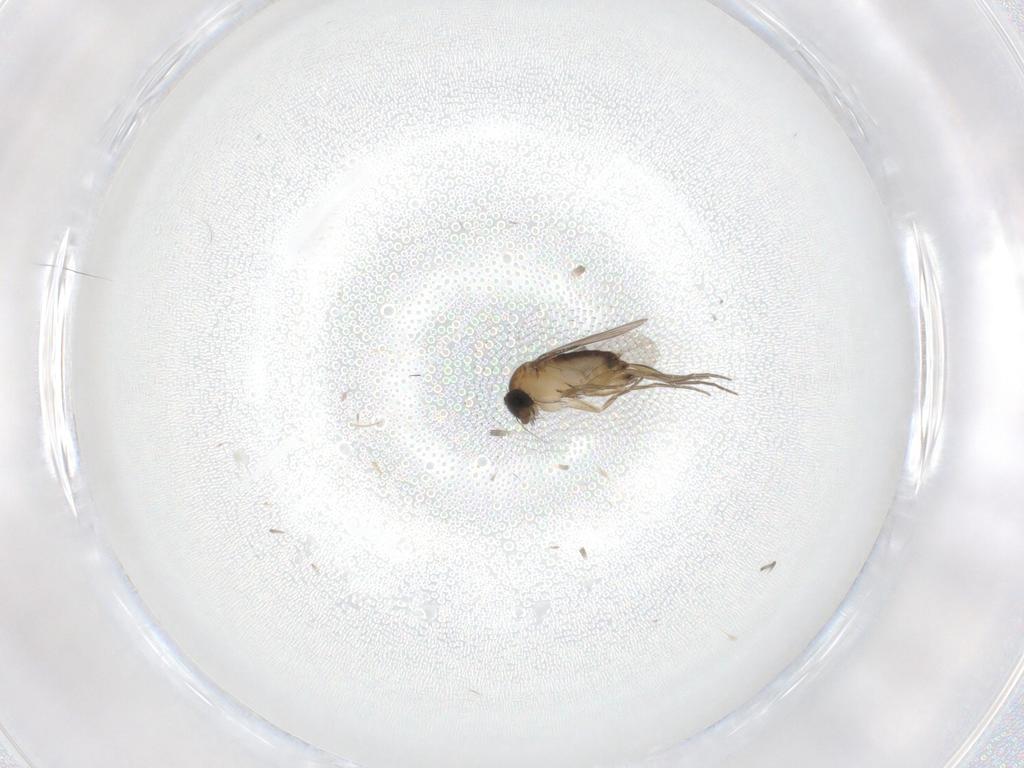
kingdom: Animalia
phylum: Arthropoda
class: Insecta
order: Diptera
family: Phoridae
